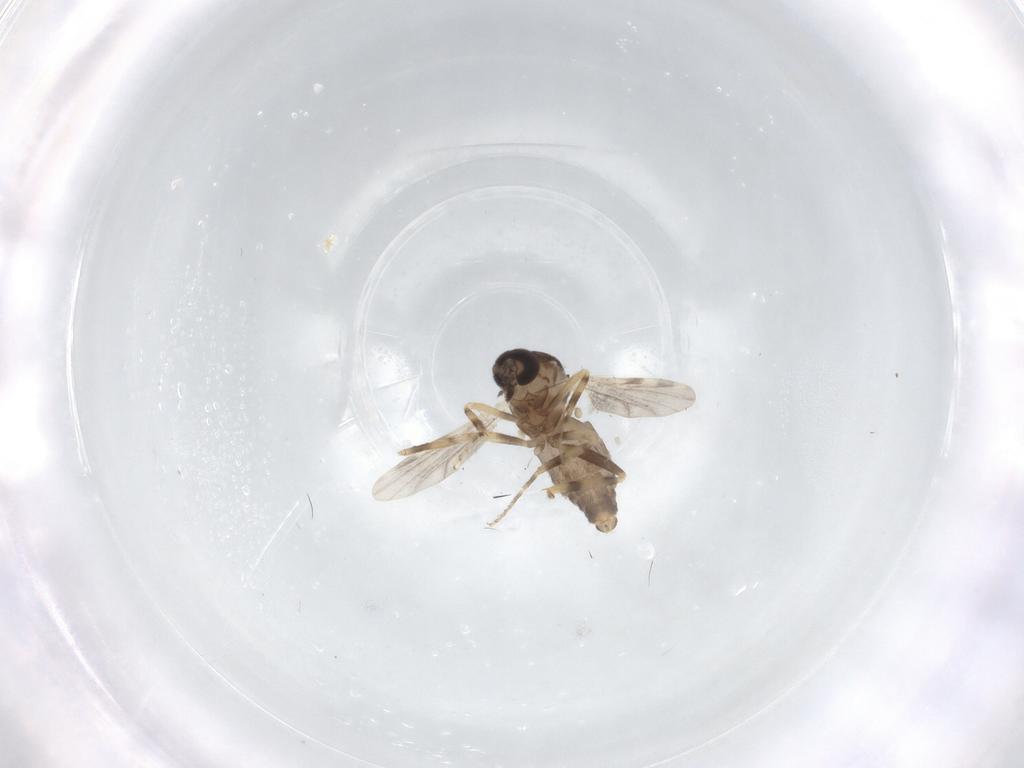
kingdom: Animalia
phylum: Arthropoda
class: Insecta
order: Diptera
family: Ceratopogonidae
